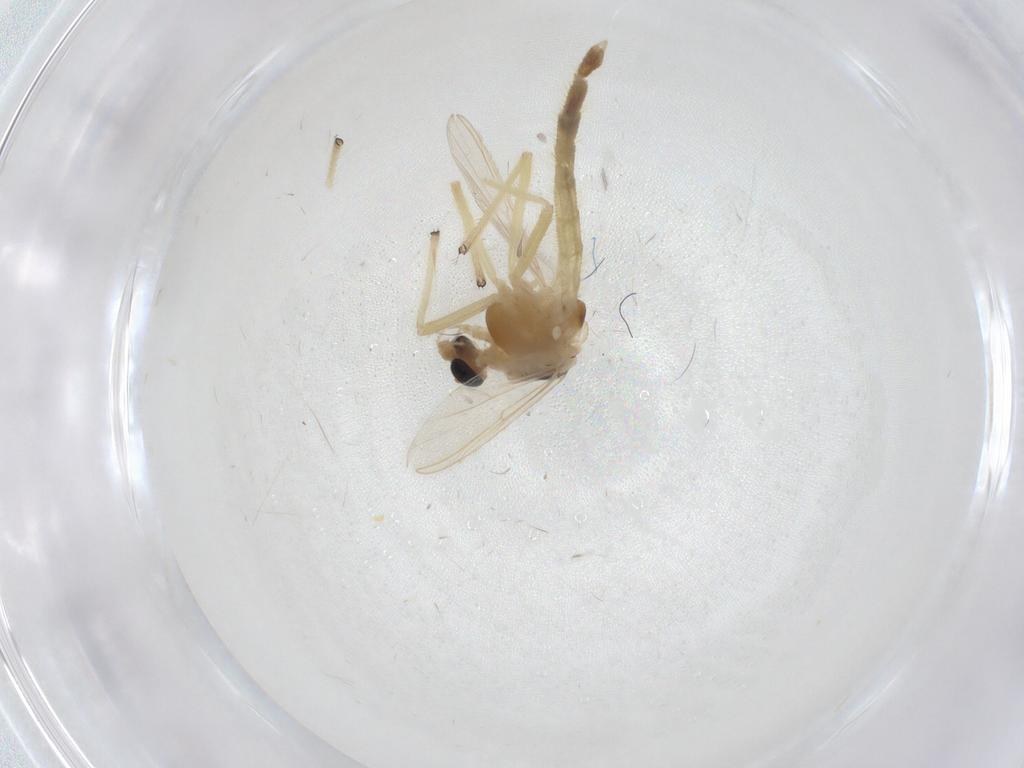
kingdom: Animalia
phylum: Arthropoda
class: Insecta
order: Diptera
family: Chironomidae
